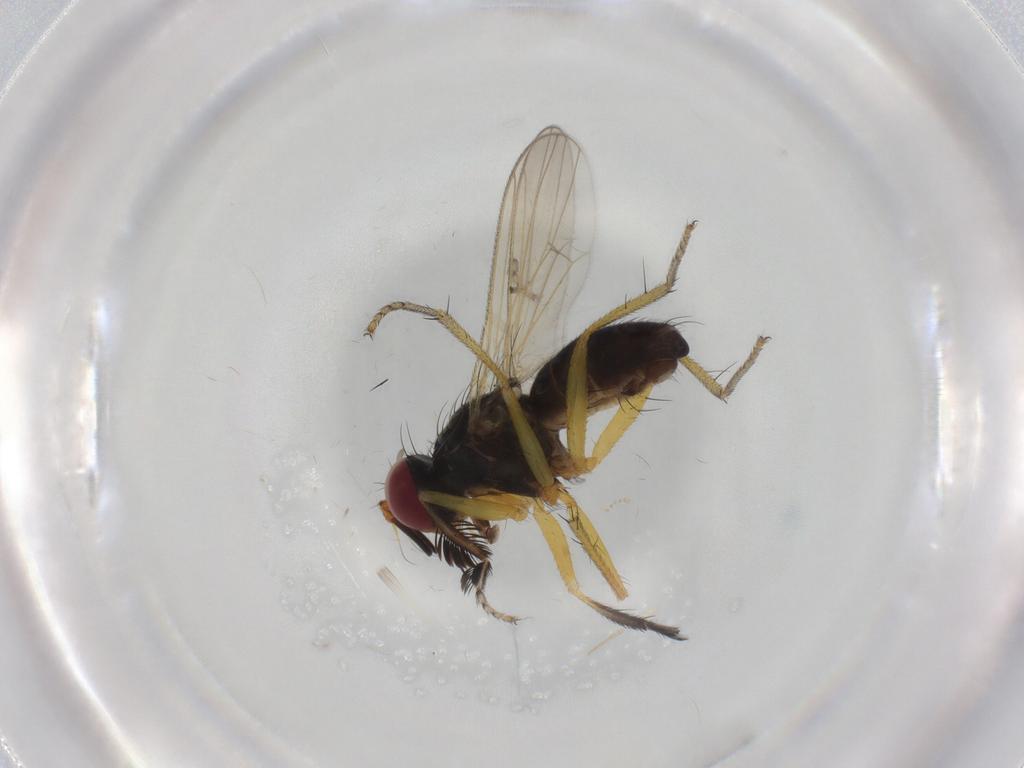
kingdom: Animalia
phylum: Arthropoda
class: Insecta
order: Diptera
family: Muscidae
